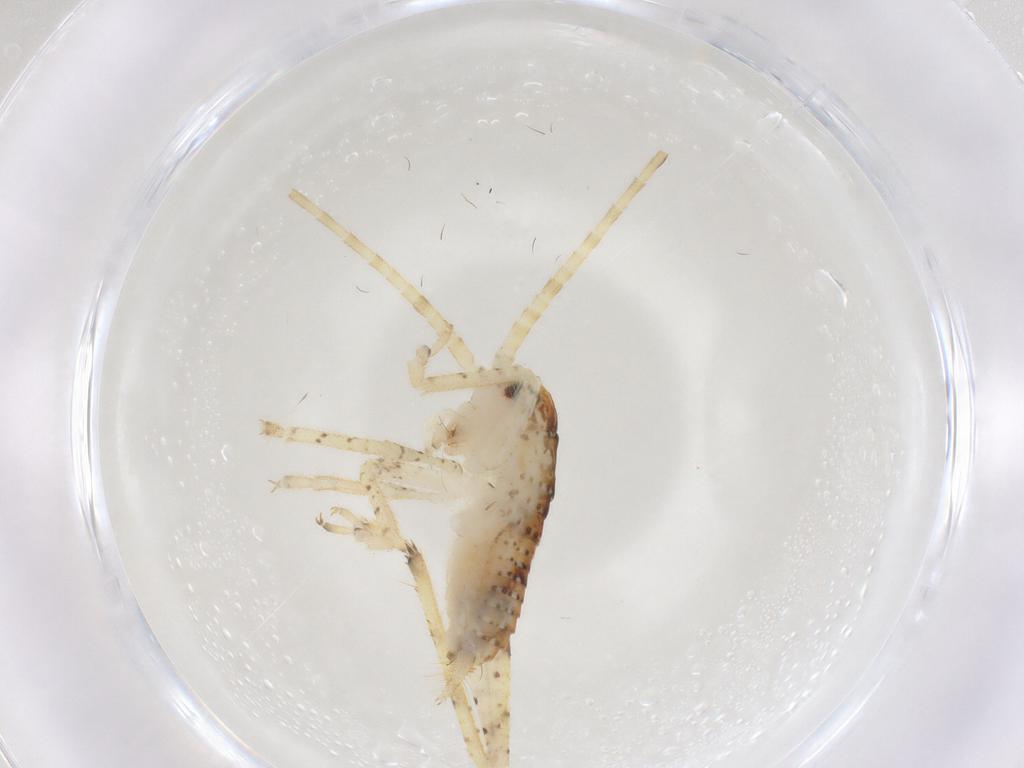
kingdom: Animalia
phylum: Arthropoda
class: Insecta
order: Orthoptera
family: Gryllidae
